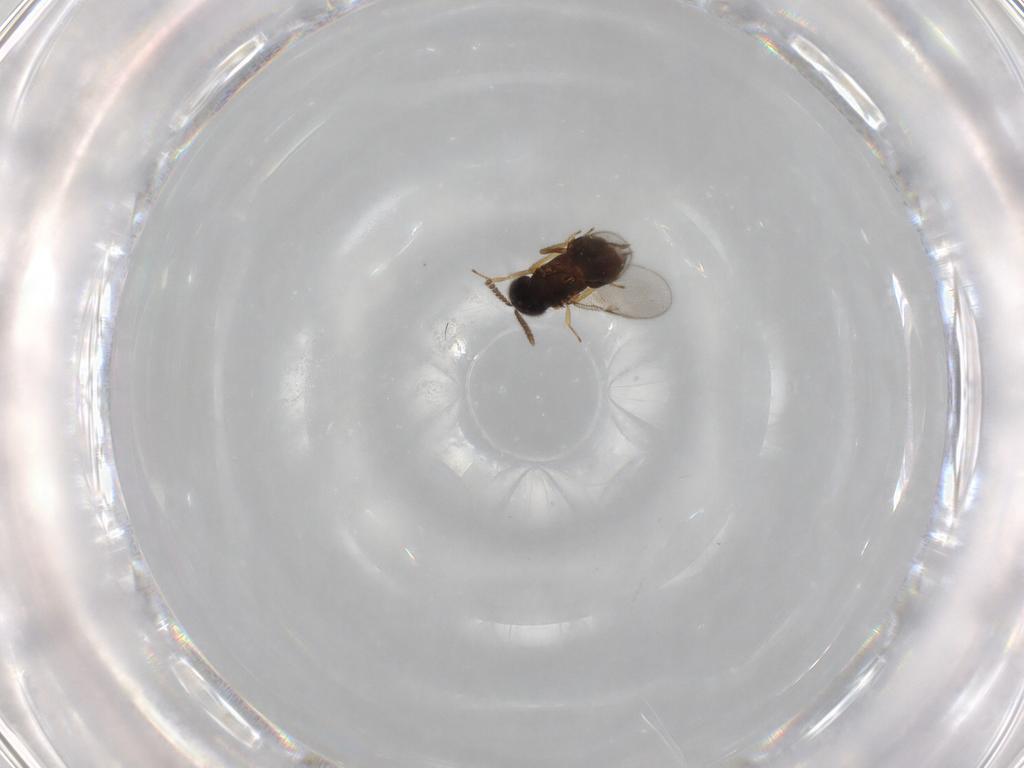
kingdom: Animalia
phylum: Arthropoda
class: Insecta
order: Hymenoptera
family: Encyrtidae
